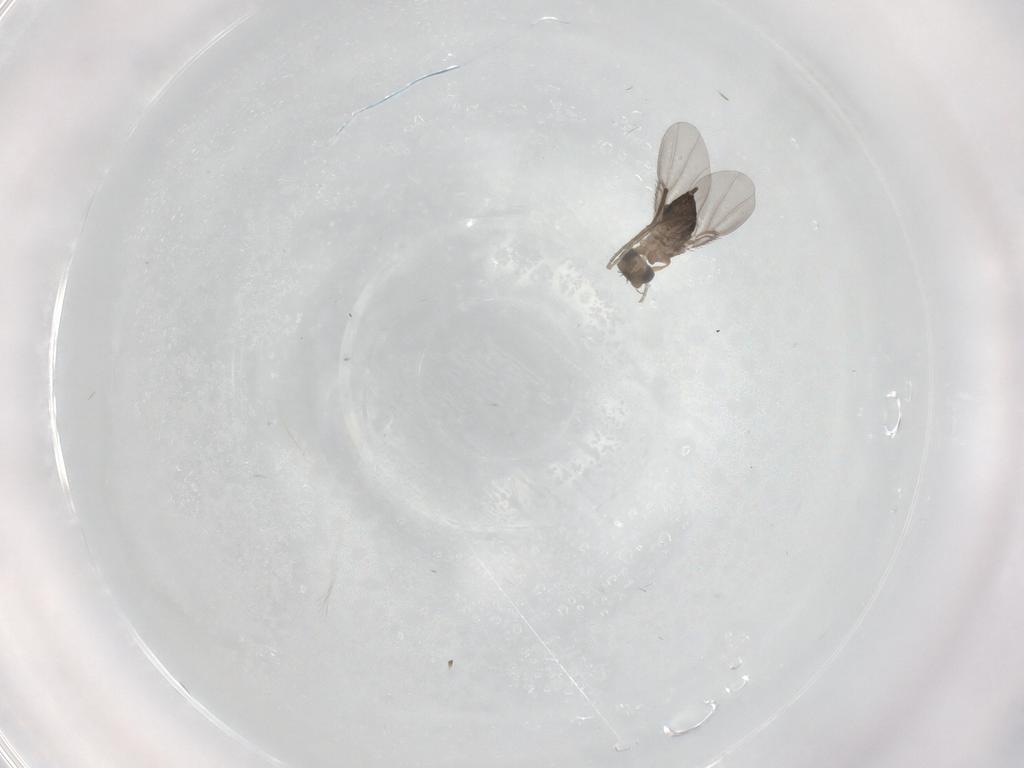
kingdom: Animalia
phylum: Arthropoda
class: Insecta
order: Diptera
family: Phoridae
